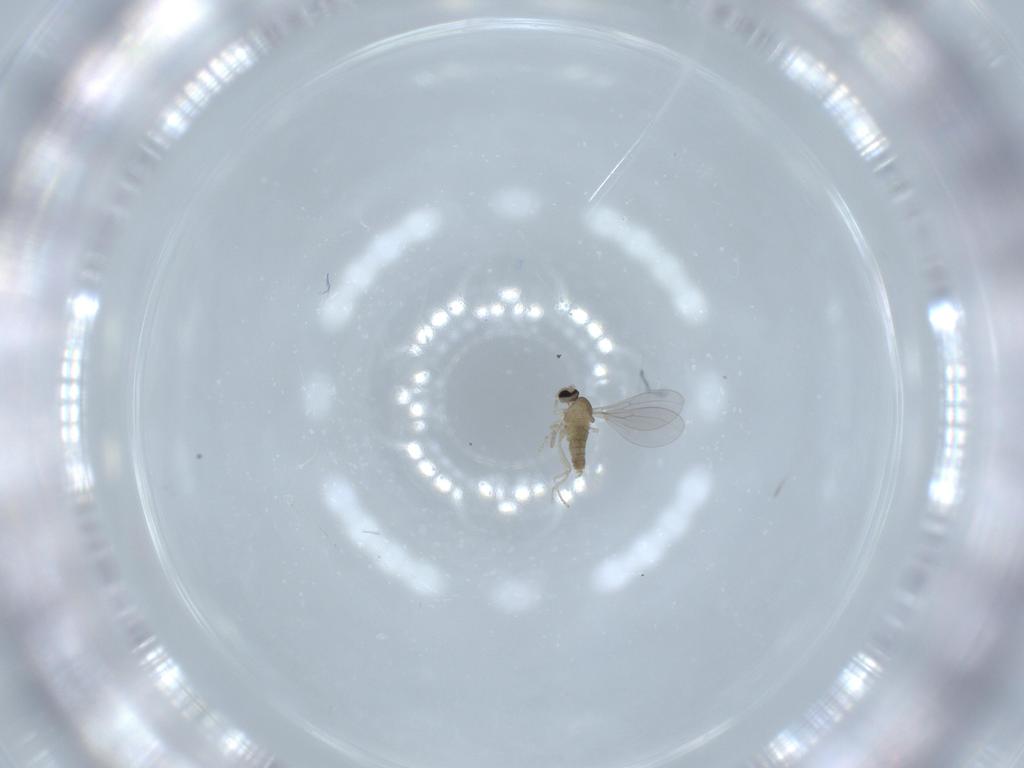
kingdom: Animalia
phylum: Arthropoda
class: Insecta
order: Diptera
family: Cecidomyiidae
